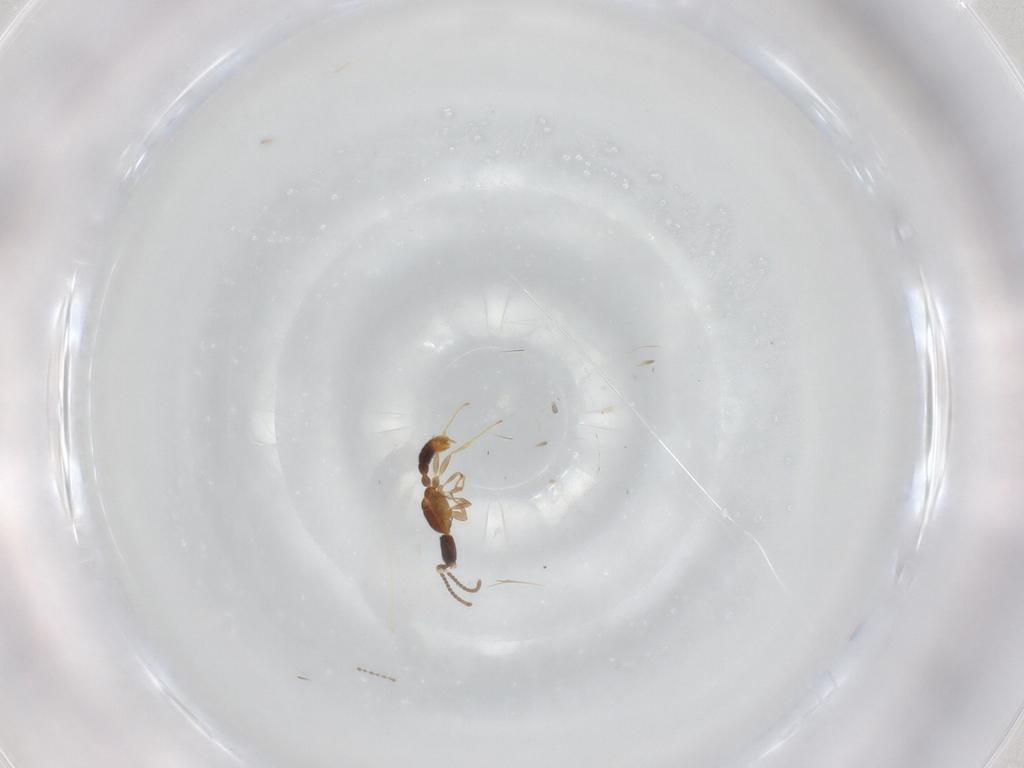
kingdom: Animalia
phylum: Arthropoda
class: Insecta
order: Hymenoptera
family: Formicidae
